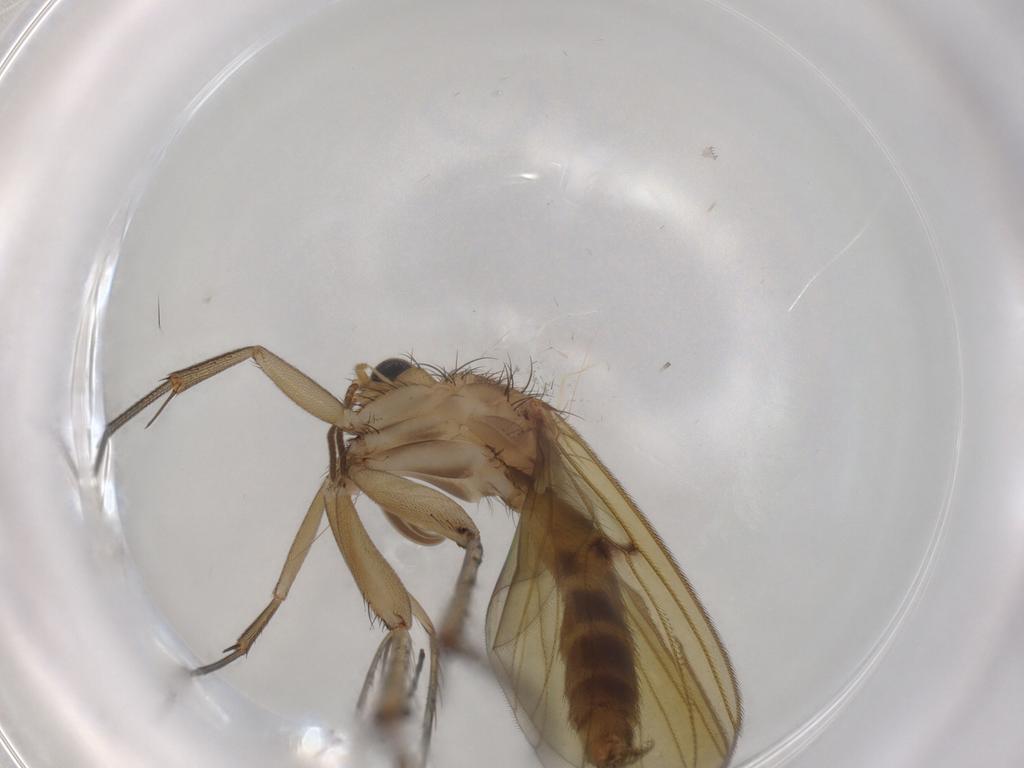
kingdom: Animalia
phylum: Arthropoda
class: Insecta
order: Diptera
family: Mycetophilidae
